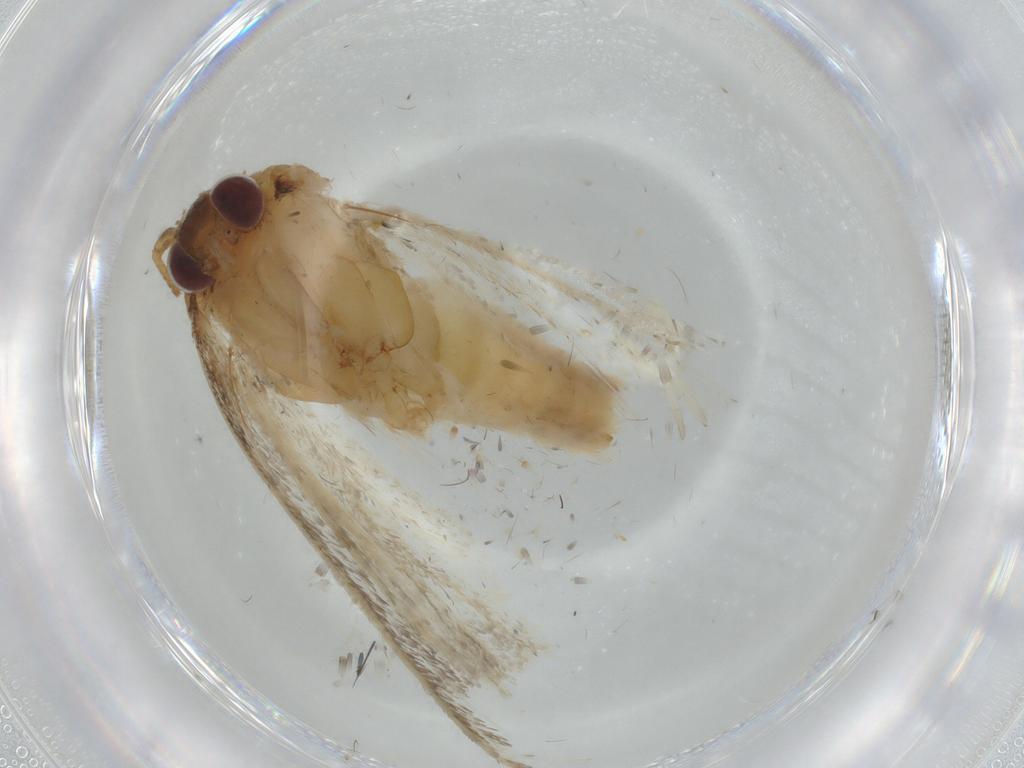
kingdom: Animalia
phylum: Arthropoda
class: Insecta
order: Lepidoptera
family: Tortricidae
